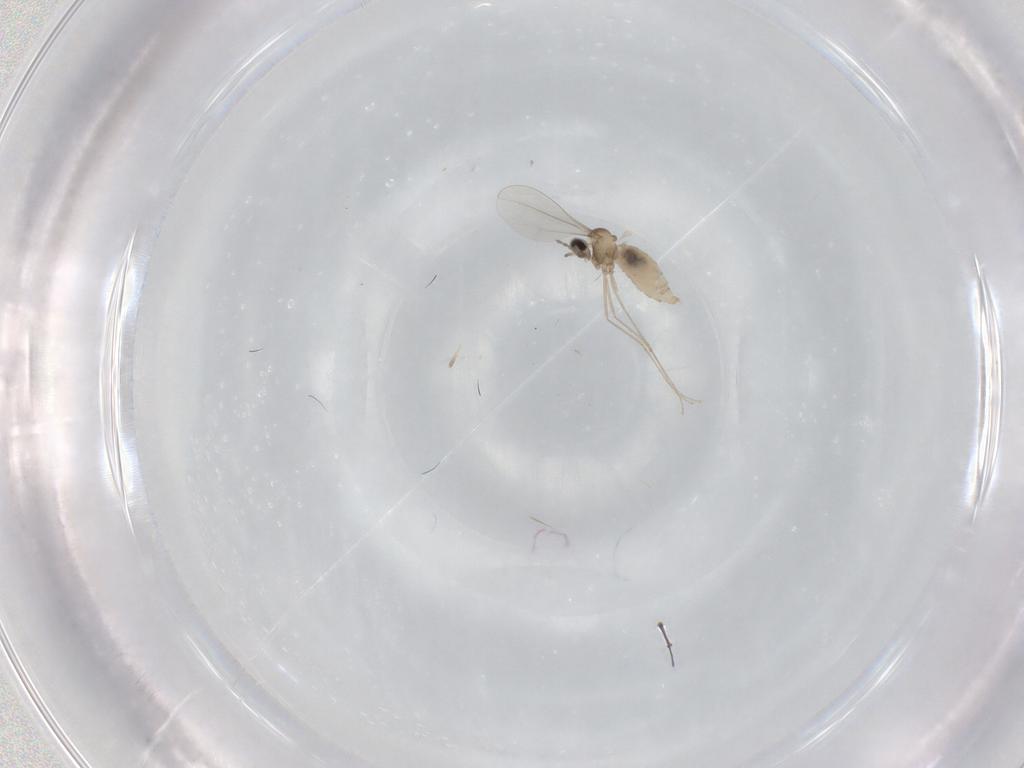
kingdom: Animalia
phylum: Arthropoda
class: Insecta
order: Diptera
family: Cecidomyiidae
